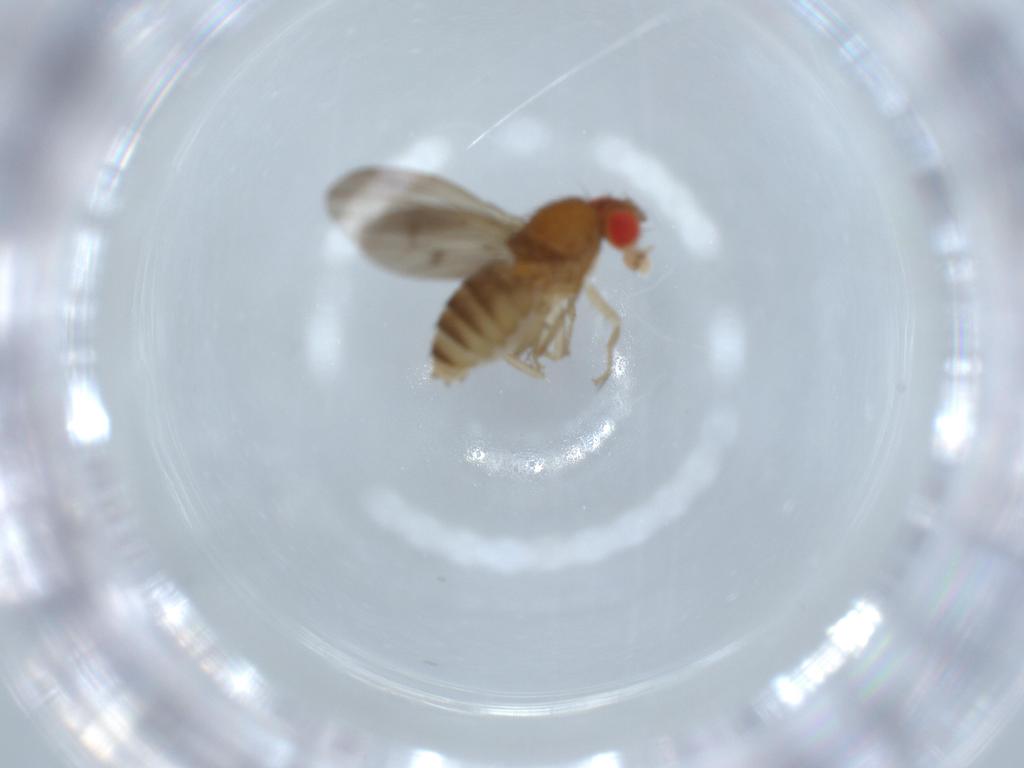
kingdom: Animalia
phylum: Arthropoda
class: Insecta
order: Diptera
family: Drosophilidae
